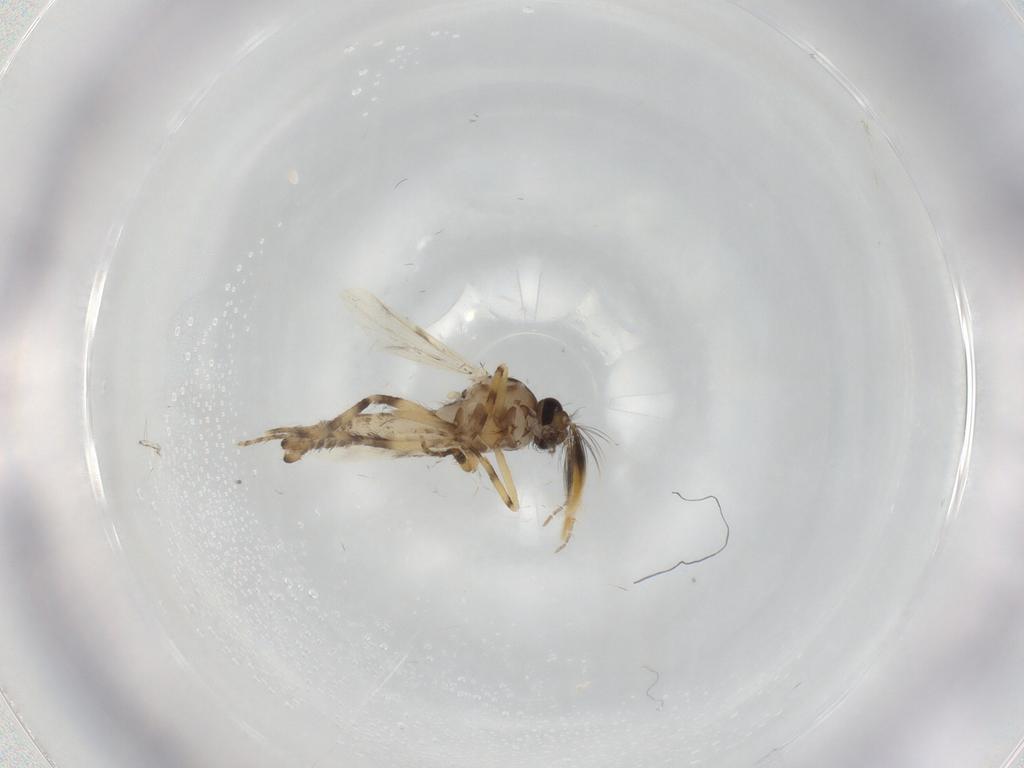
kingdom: Animalia
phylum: Arthropoda
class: Insecta
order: Diptera
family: Ceratopogonidae
